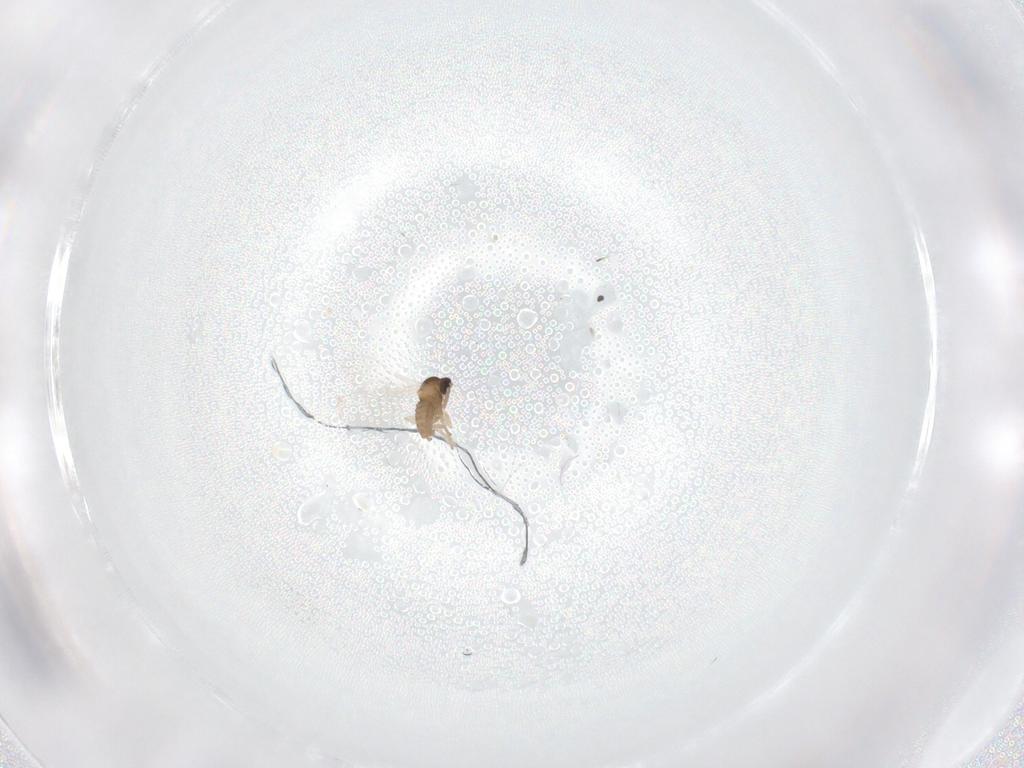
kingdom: Animalia
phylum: Arthropoda
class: Insecta
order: Diptera
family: Cecidomyiidae
